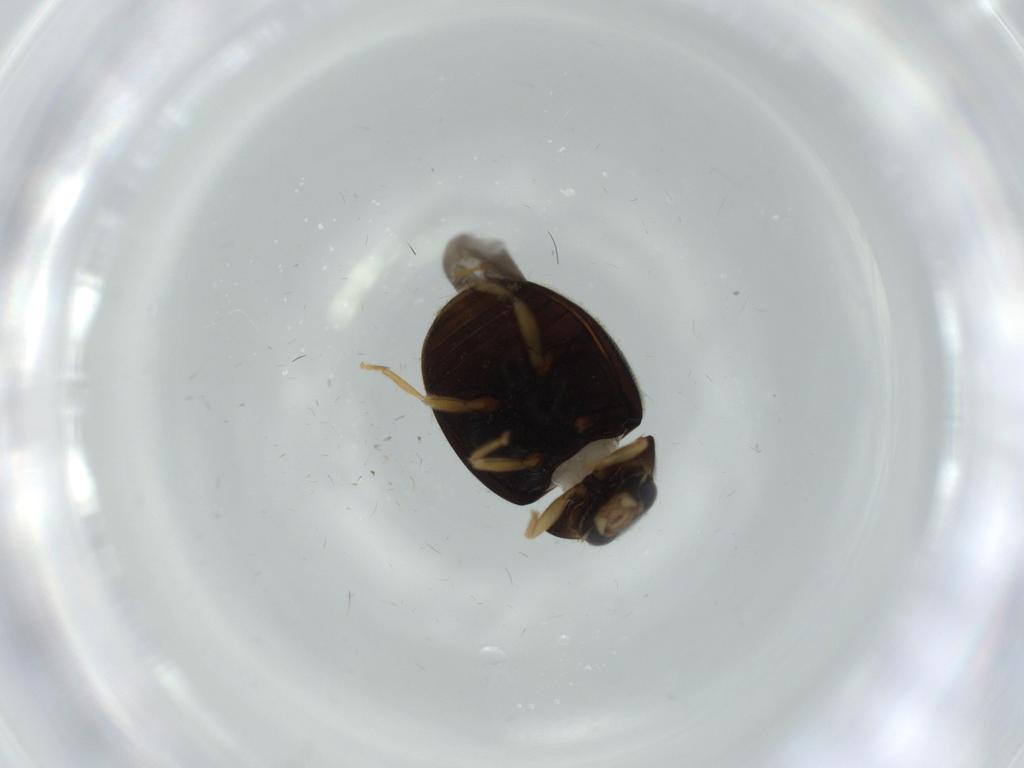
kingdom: Animalia
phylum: Arthropoda
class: Insecta
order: Coleoptera
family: Coccinellidae
